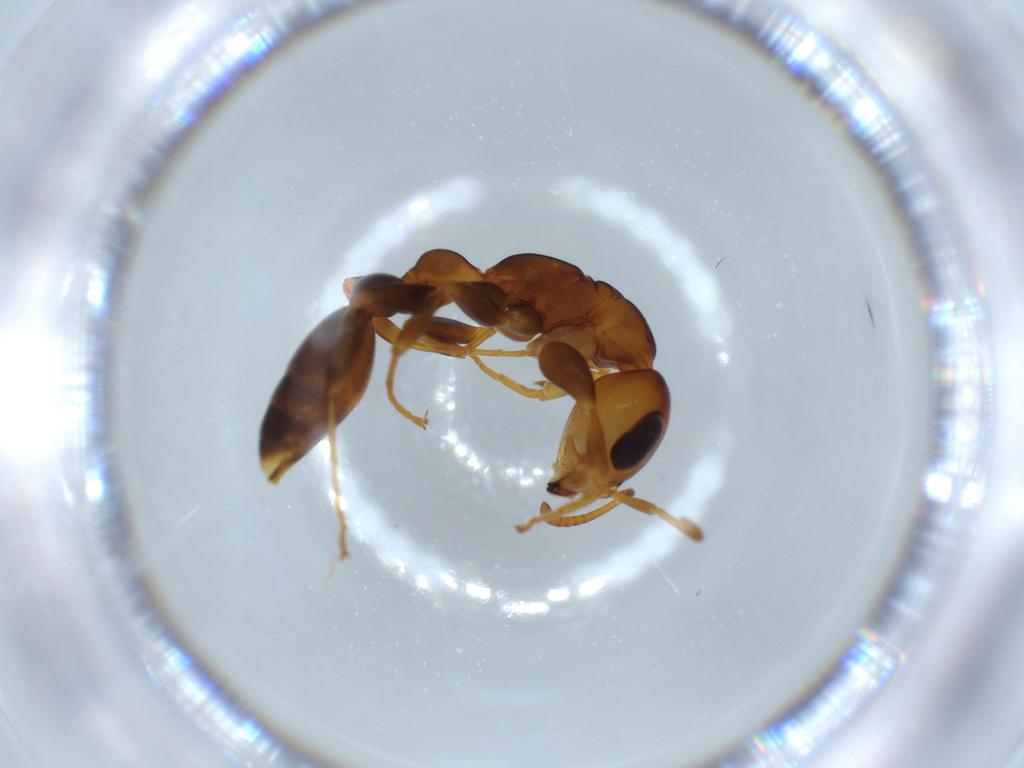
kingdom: Animalia
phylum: Arthropoda
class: Insecta
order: Hymenoptera
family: Formicidae
